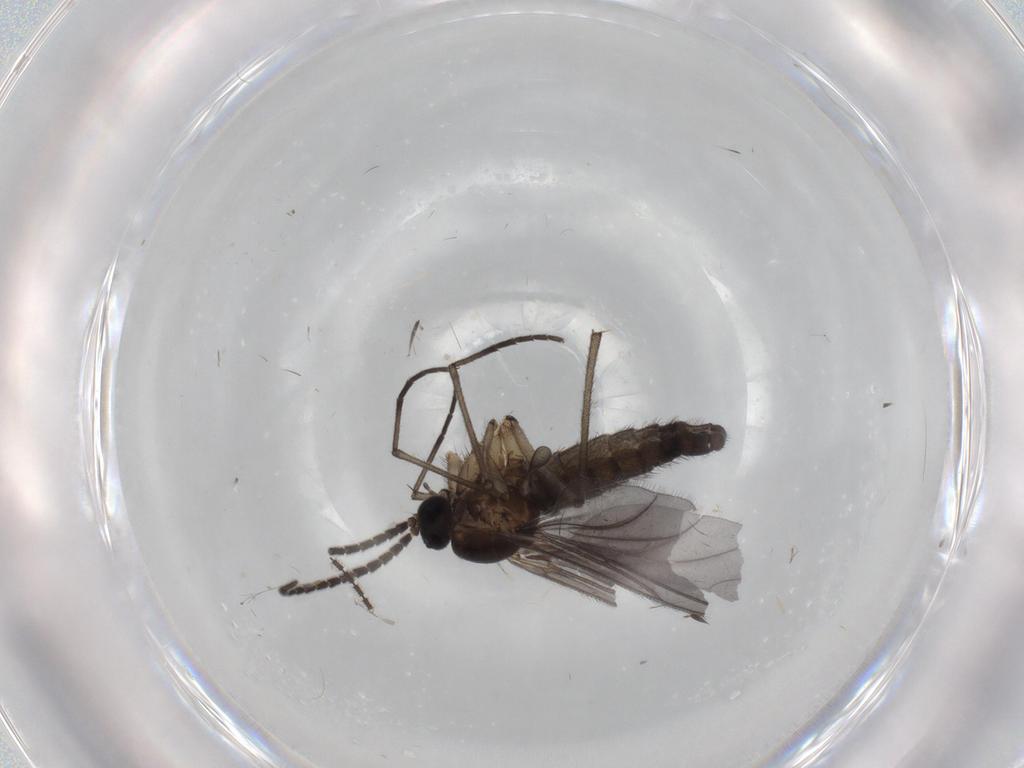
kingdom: Animalia
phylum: Arthropoda
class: Insecta
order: Diptera
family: Sciaridae
